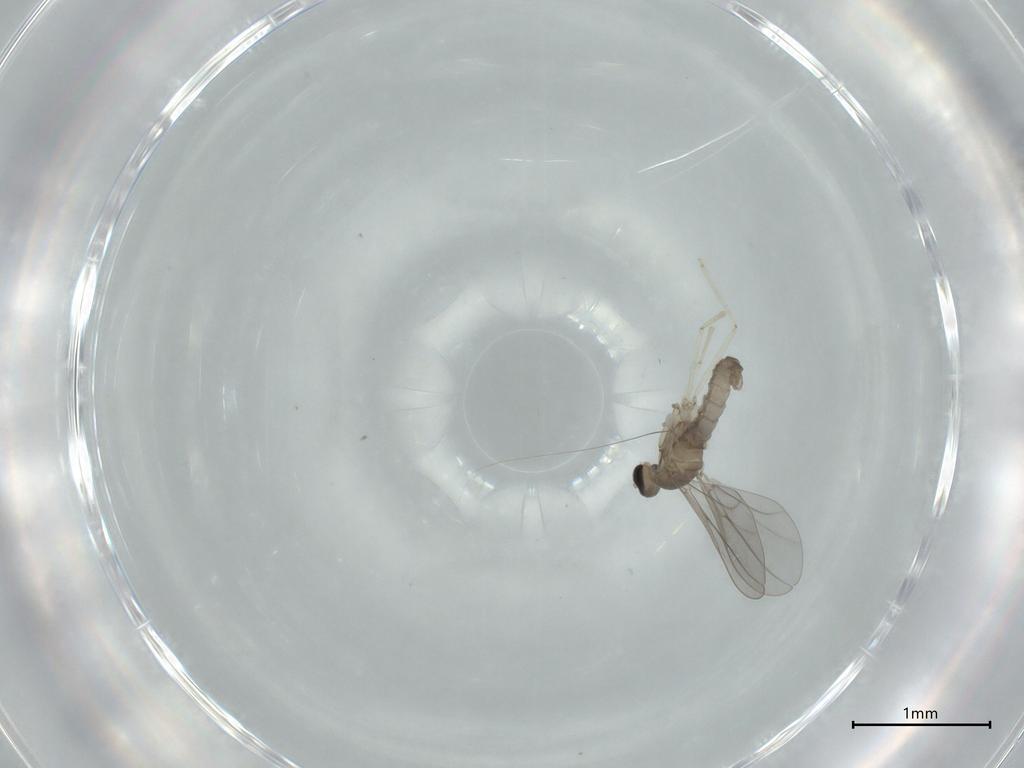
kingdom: Animalia
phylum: Arthropoda
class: Insecta
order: Diptera
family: Cecidomyiidae
